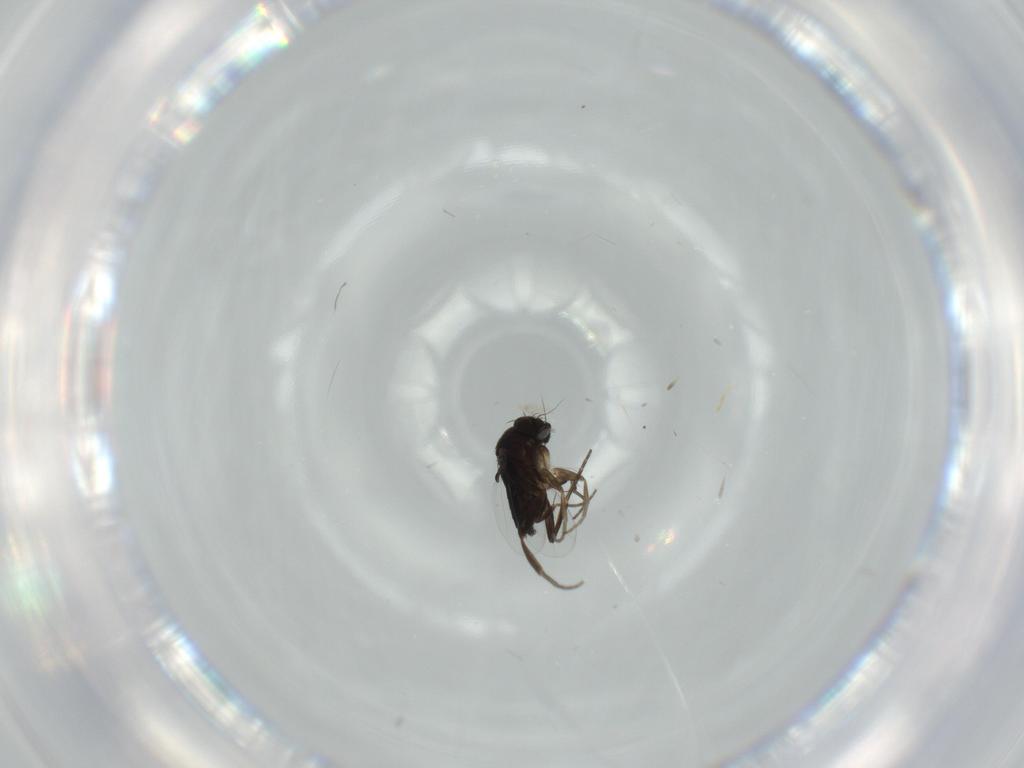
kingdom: Animalia
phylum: Arthropoda
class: Insecta
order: Diptera
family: Phoridae
